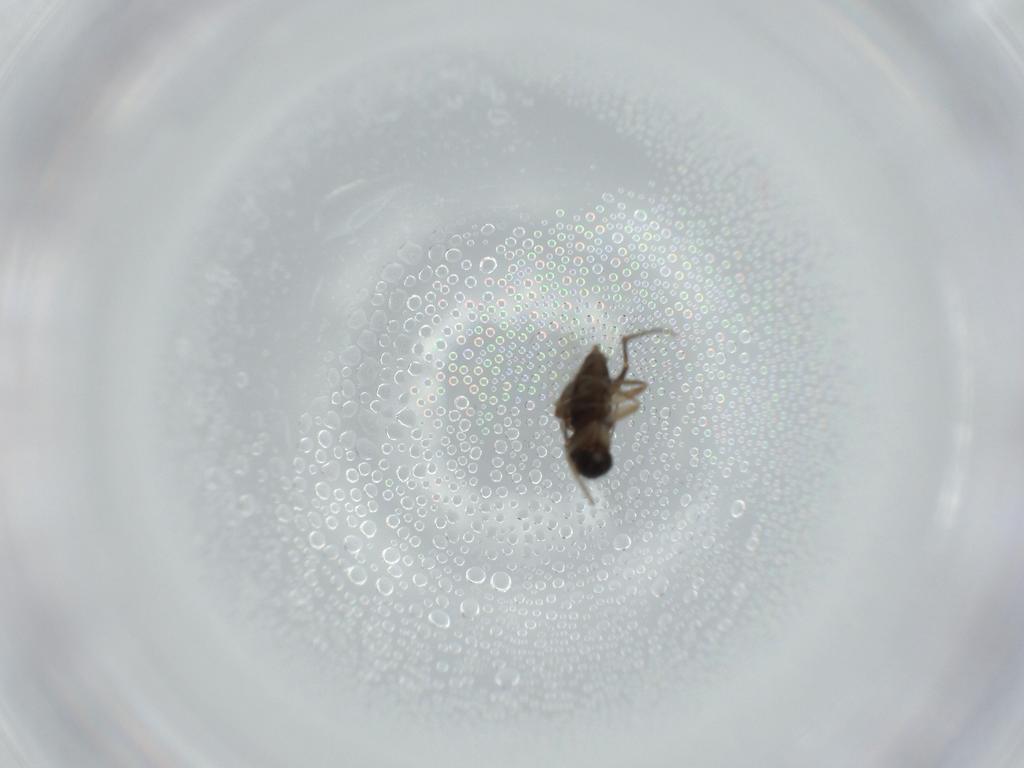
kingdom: Animalia
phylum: Arthropoda
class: Insecta
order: Diptera
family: Phoridae
